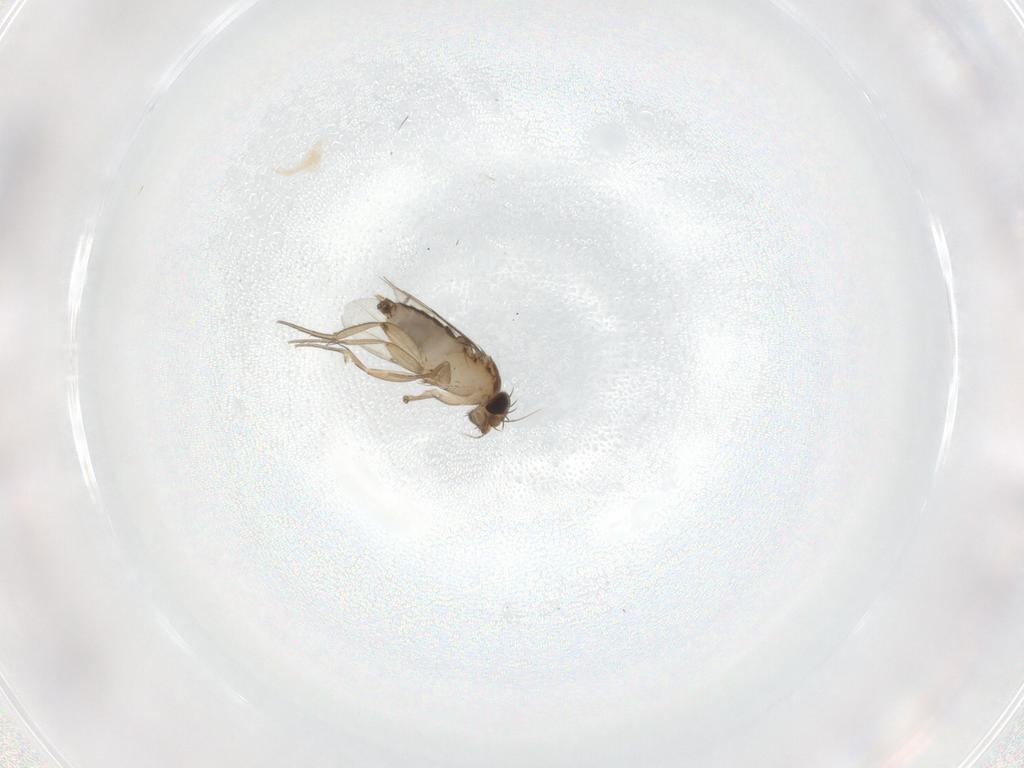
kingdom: Animalia
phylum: Arthropoda
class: Insecta
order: Diptera
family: Phoridae
